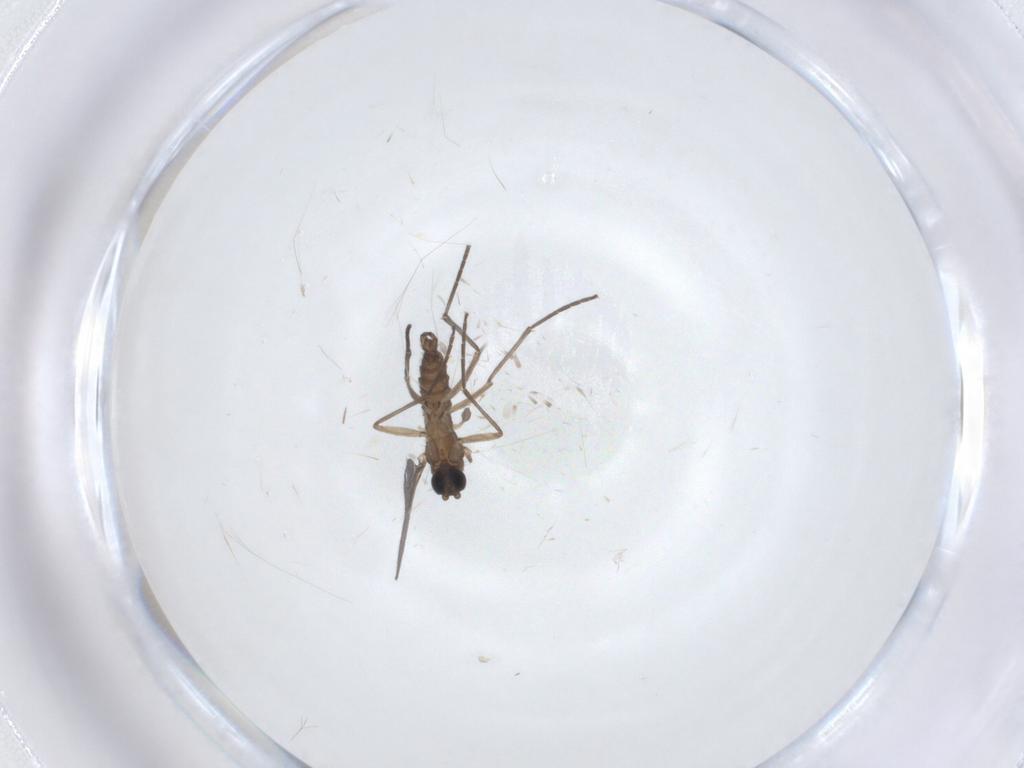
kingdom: Animalia
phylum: Arthropoda
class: Insecta
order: Diptera
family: Sciaridae
